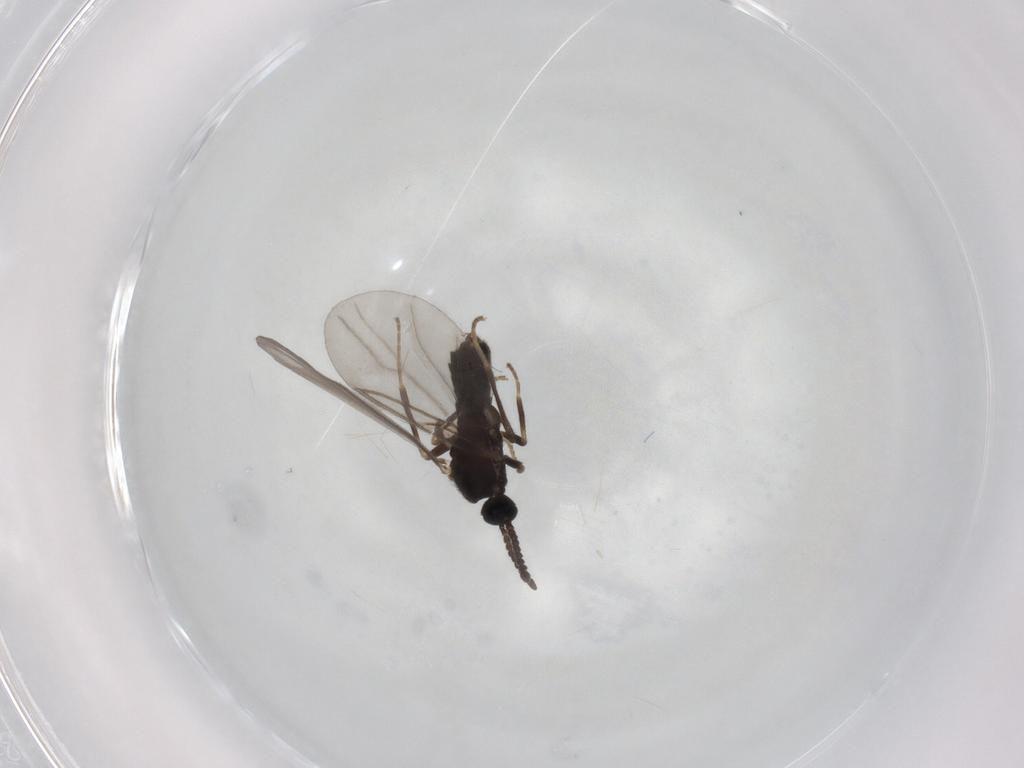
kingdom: Animalia
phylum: Arthropoda
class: Insecta
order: Diptera
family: Scatopsidae
